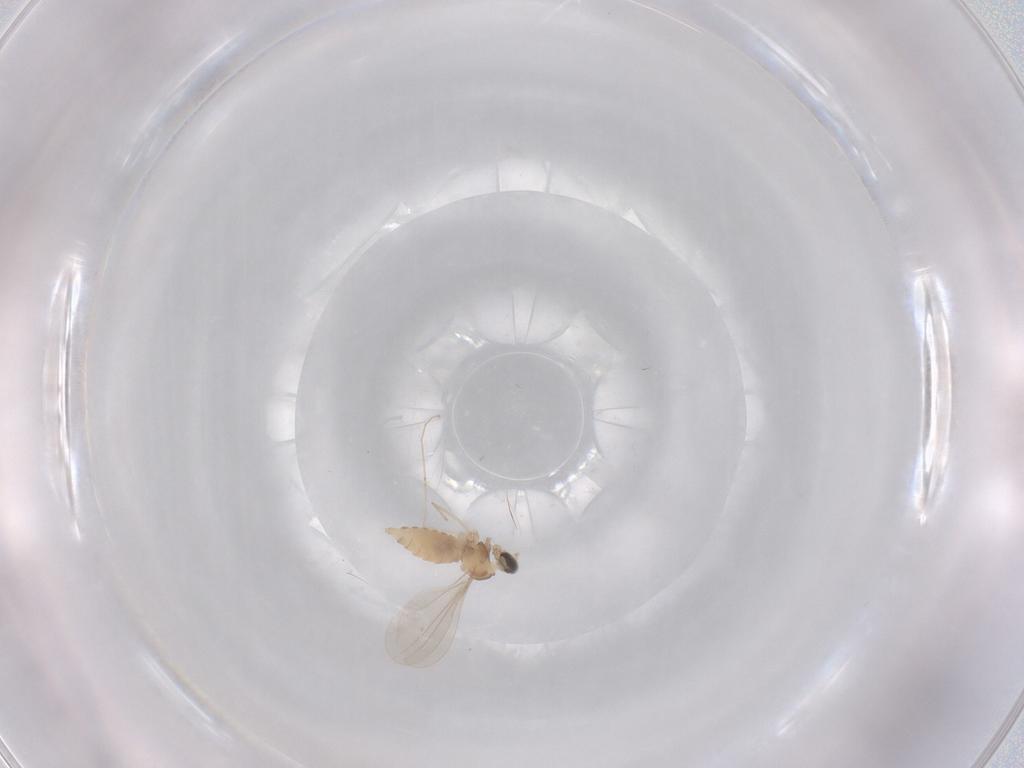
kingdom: Animalia
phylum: Arthropoda
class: Insecta
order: Diptera
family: Cecidomyiidae
